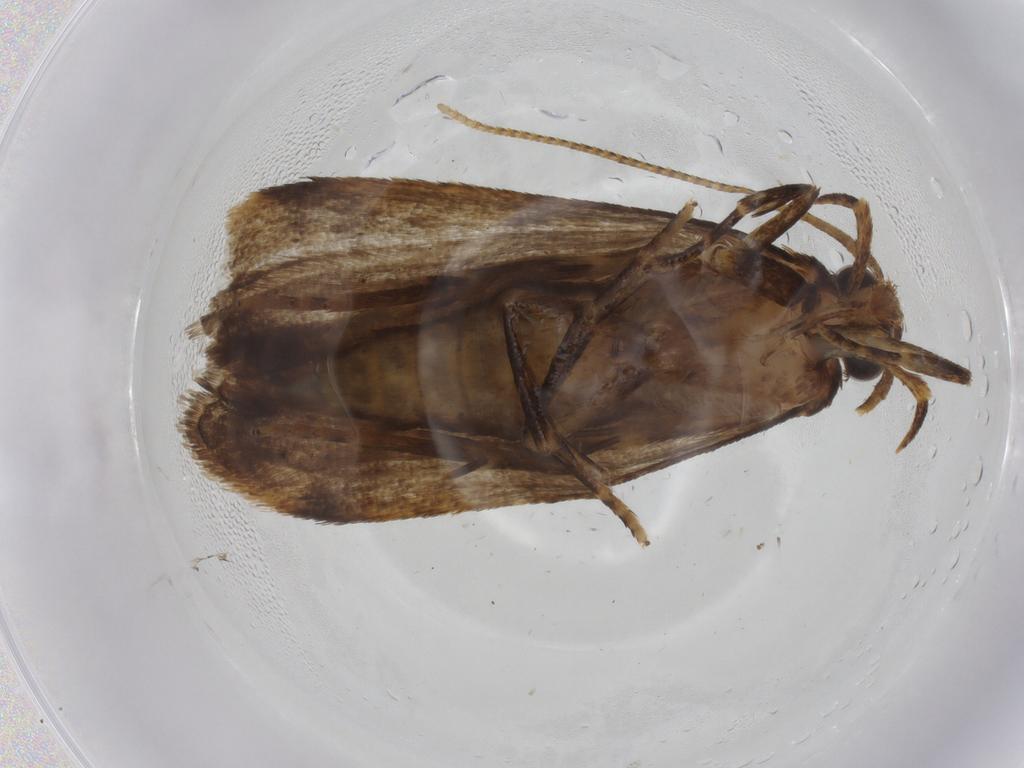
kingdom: Animalia
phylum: Arthropoda
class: Insecta
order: Lepidoptera
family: Autostichidae
